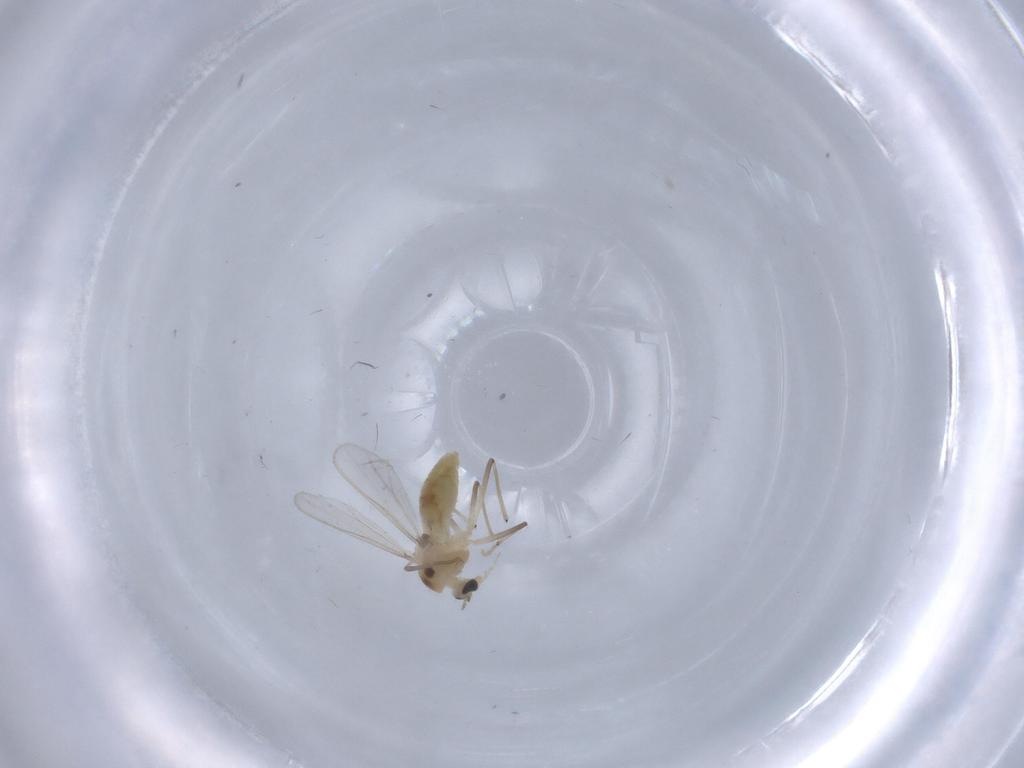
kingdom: Animalia
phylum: Arthropoda
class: Insecta
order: Diptera
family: Chironomidae
